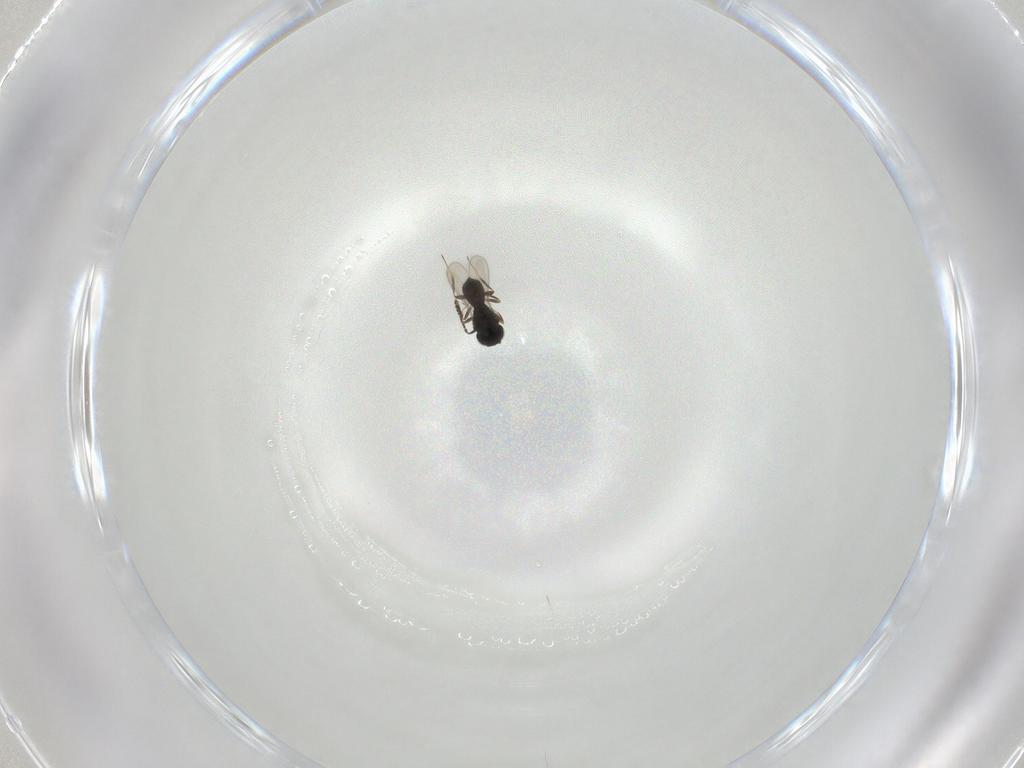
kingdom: Animalia
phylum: Arthropoda
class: Insecta
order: Hymenoptera
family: Scelionidae
